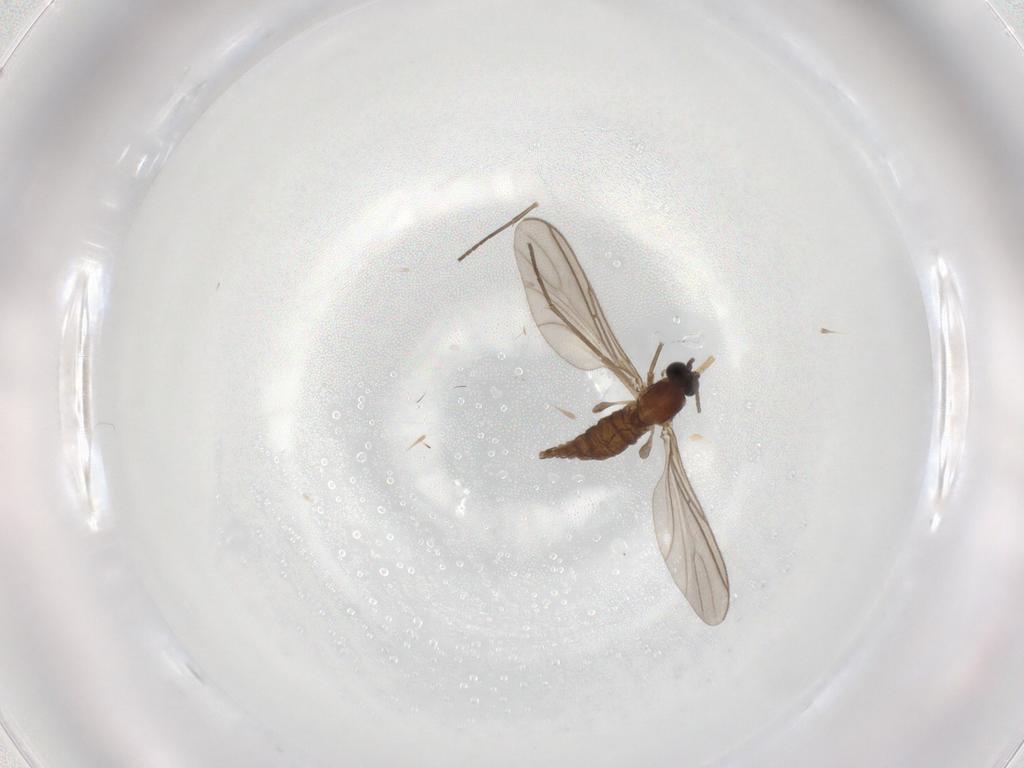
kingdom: Animalia
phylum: Arthropoda
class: Insecta
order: Diptera
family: Sciaridae
